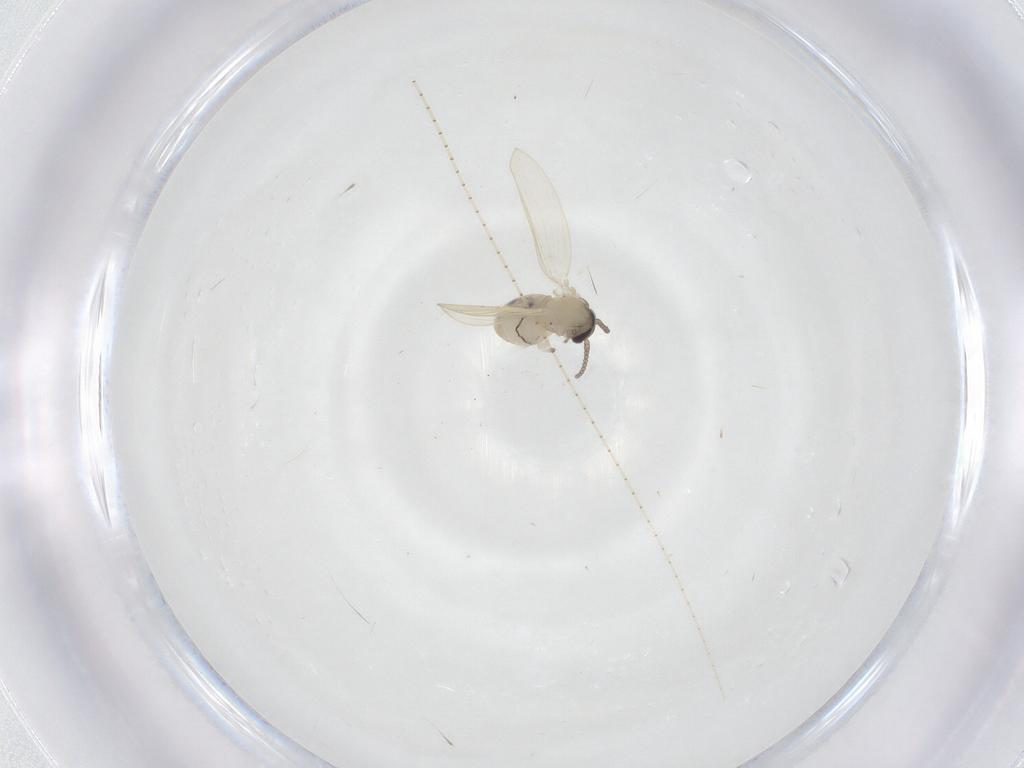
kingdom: Animalia
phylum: Arthropoda
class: Insecta
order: Diptera
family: Psychodidae
